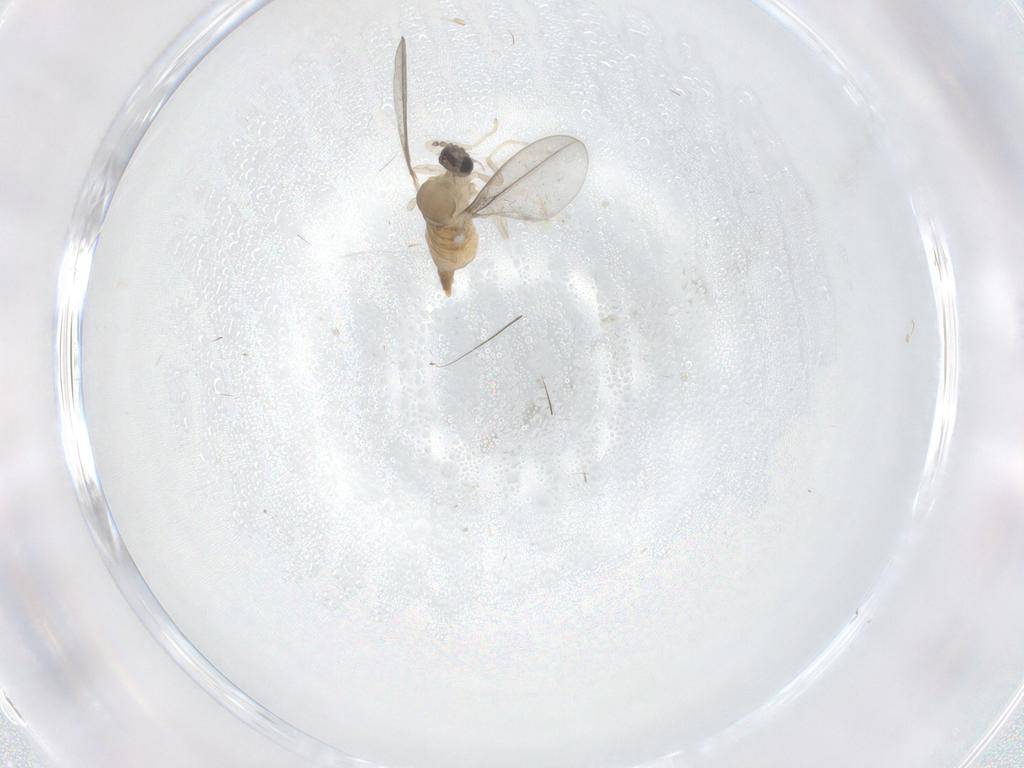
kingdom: Animalia
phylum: Arthropoda
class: Insecta
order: Diptera
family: Cecidomyiidae
